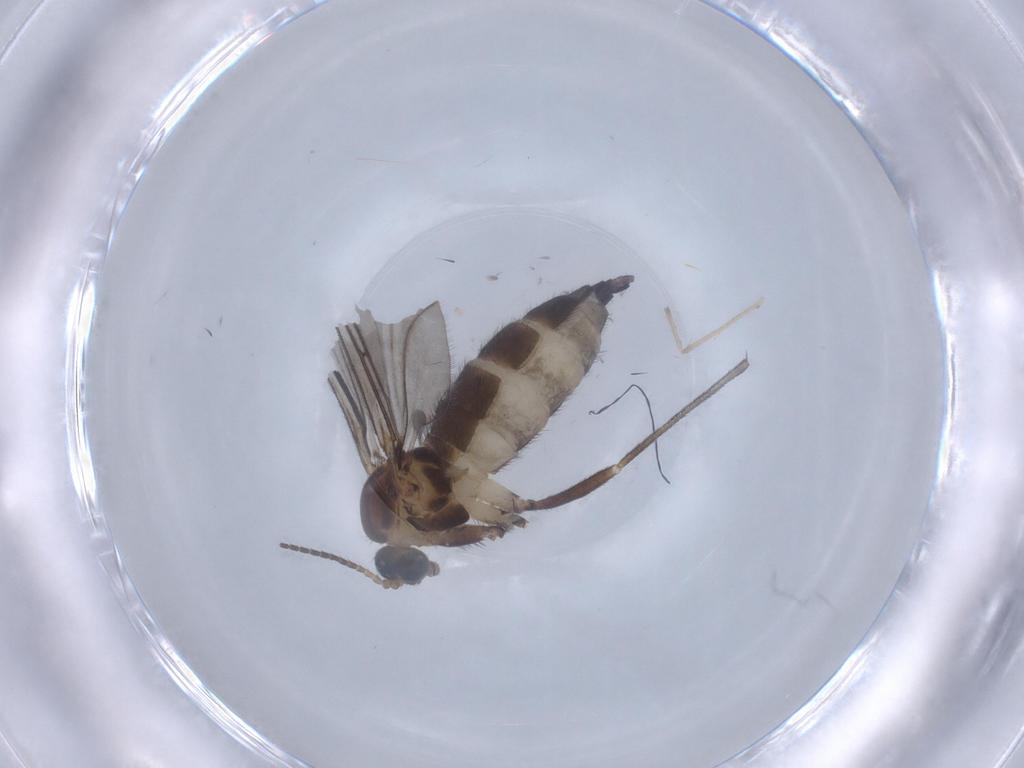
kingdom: Animalia
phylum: Arthropoda
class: Insecta
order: Diptera
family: Sciaridae
